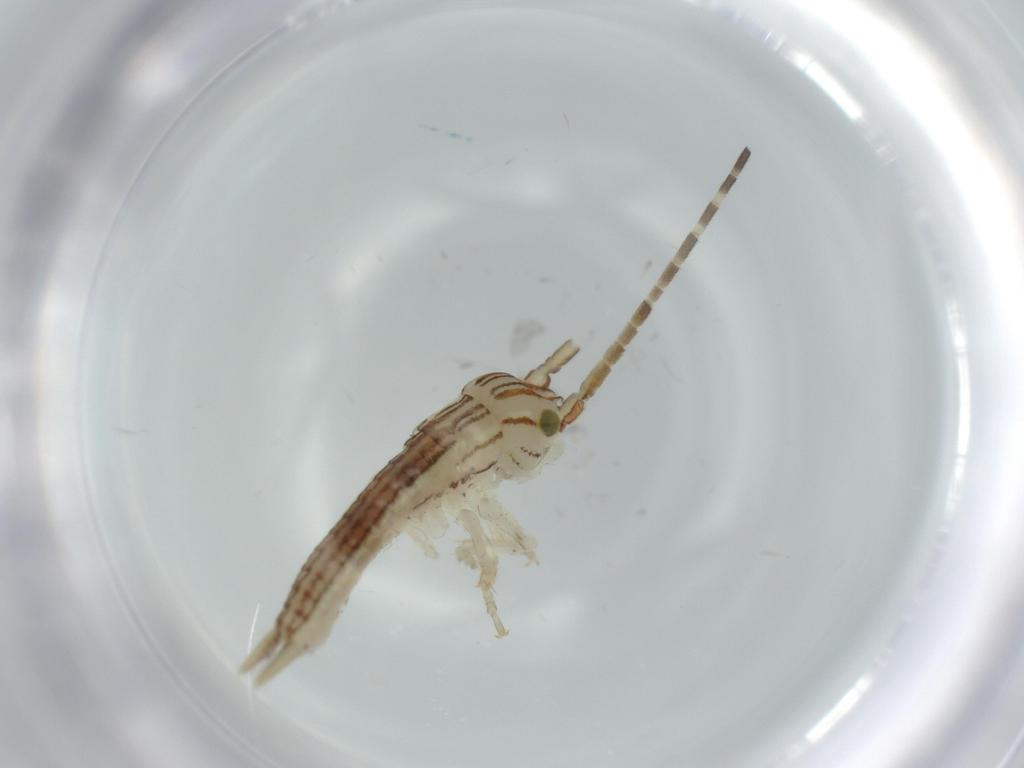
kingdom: Animalia
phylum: Arthropoda
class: Insecta
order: Orthoptera
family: Gryllidae
